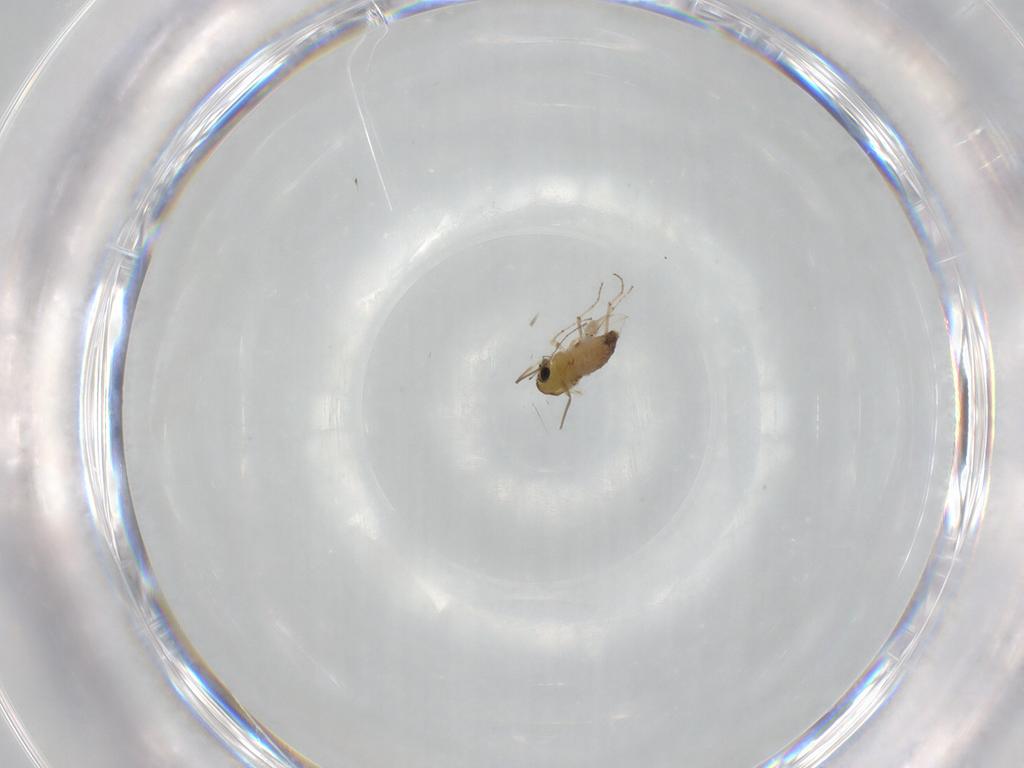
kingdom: Animalia
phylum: Arthropoda
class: Insecta
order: Diptera
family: Chironomidae
